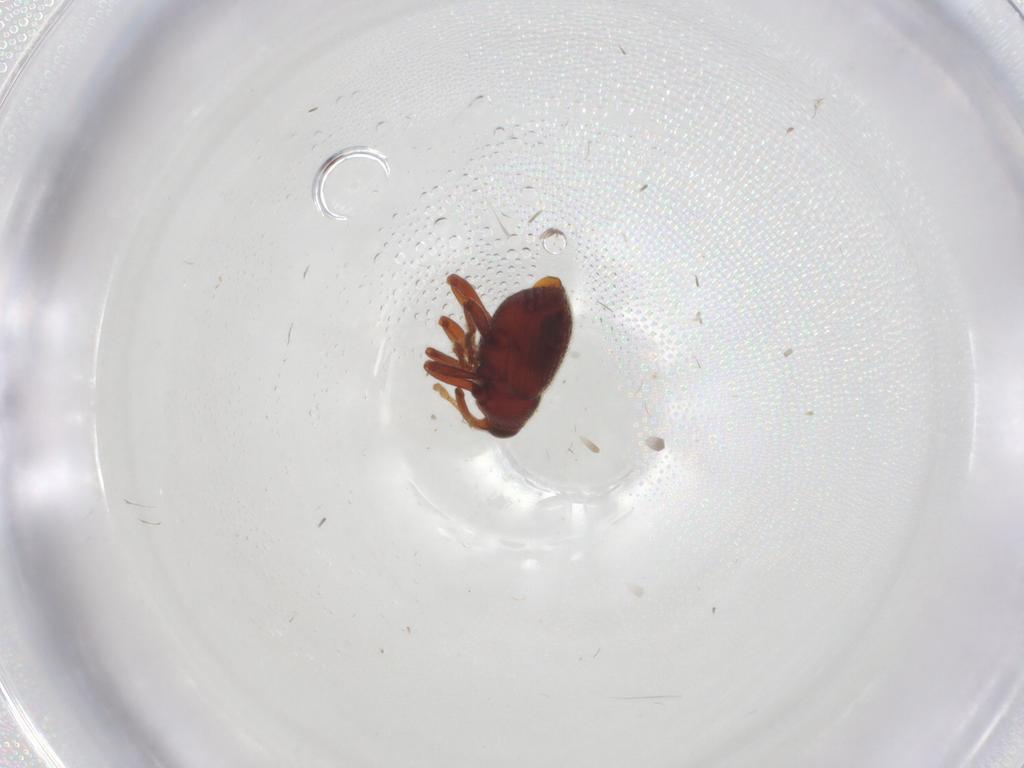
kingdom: Animalia
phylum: Arthropoda
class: Insecta
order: Coleoptera
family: Curculionidae
